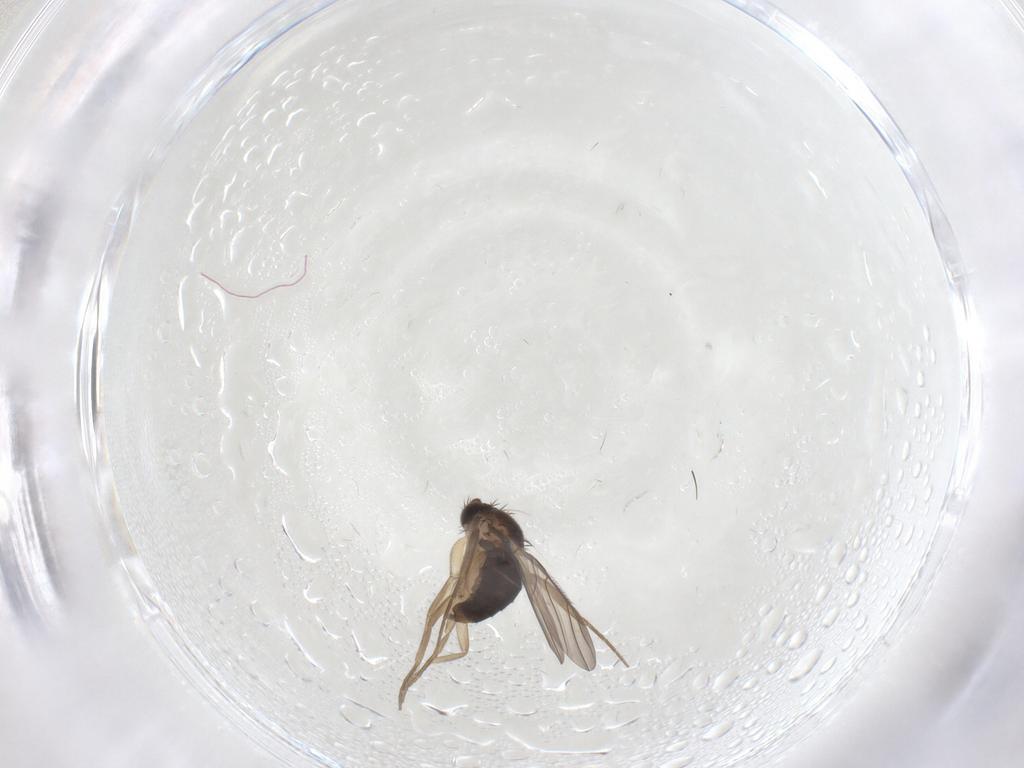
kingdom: Animalia
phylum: Arthropoda
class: Insecta
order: Diptera
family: Phoridae
